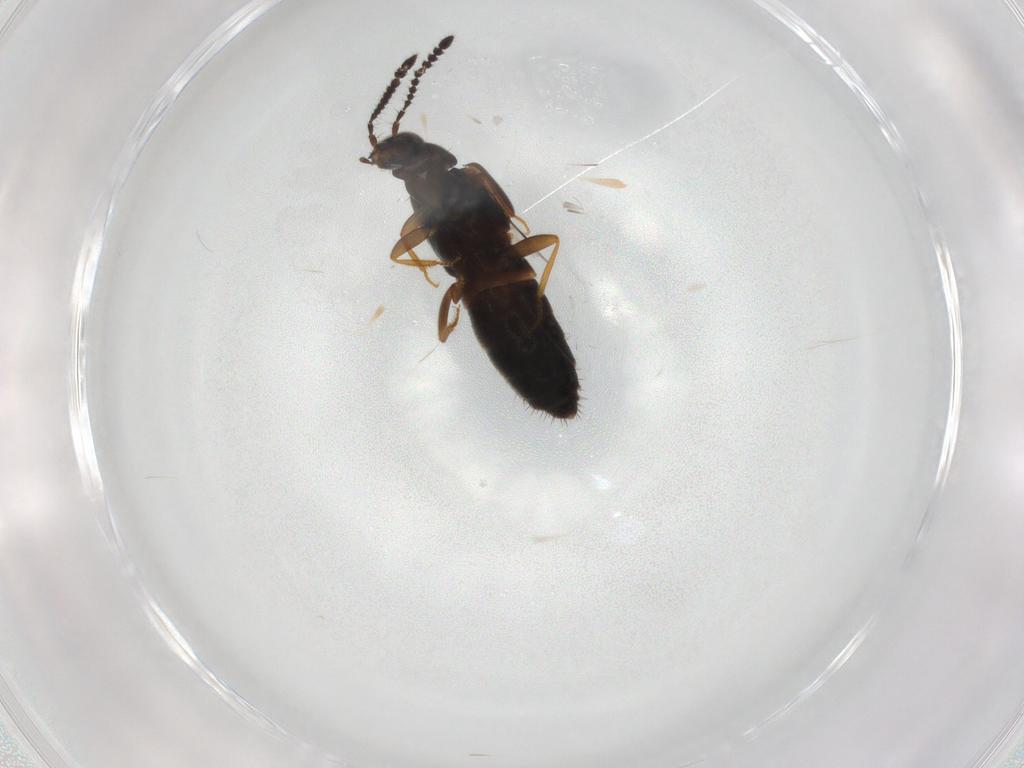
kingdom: Animalia
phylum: Arthropoda
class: Insecta
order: Coleoptera
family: Staphylinidae
